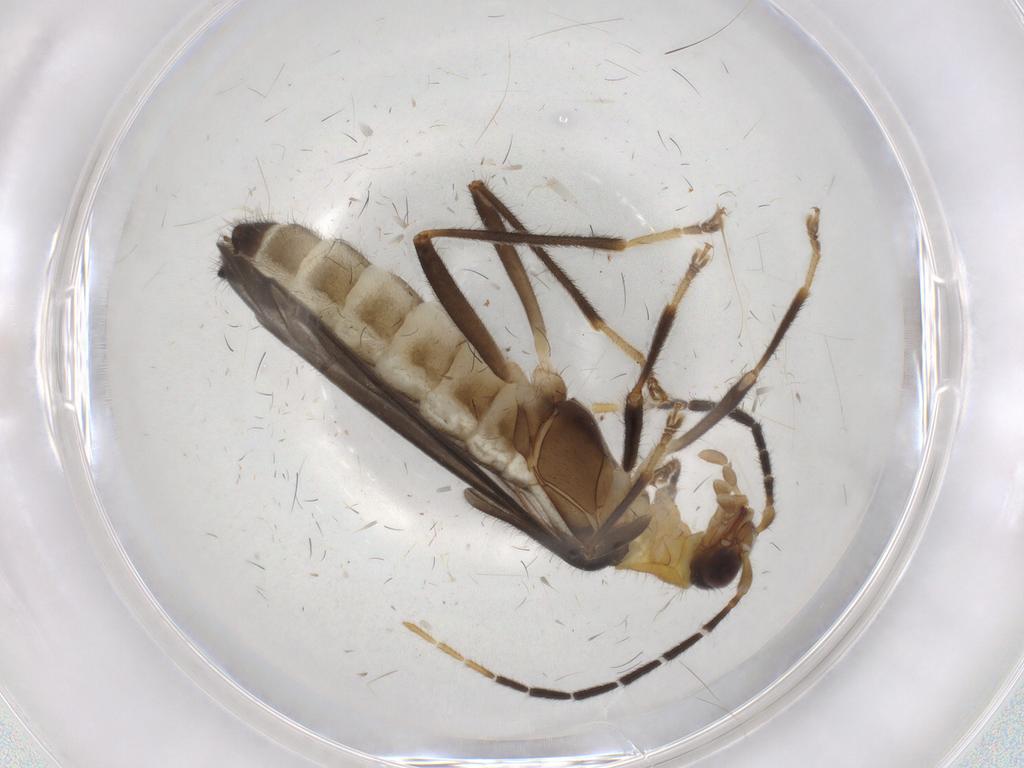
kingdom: Animalia
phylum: Arthropoda
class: Insecta
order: Coleoptera
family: Cantharidae
